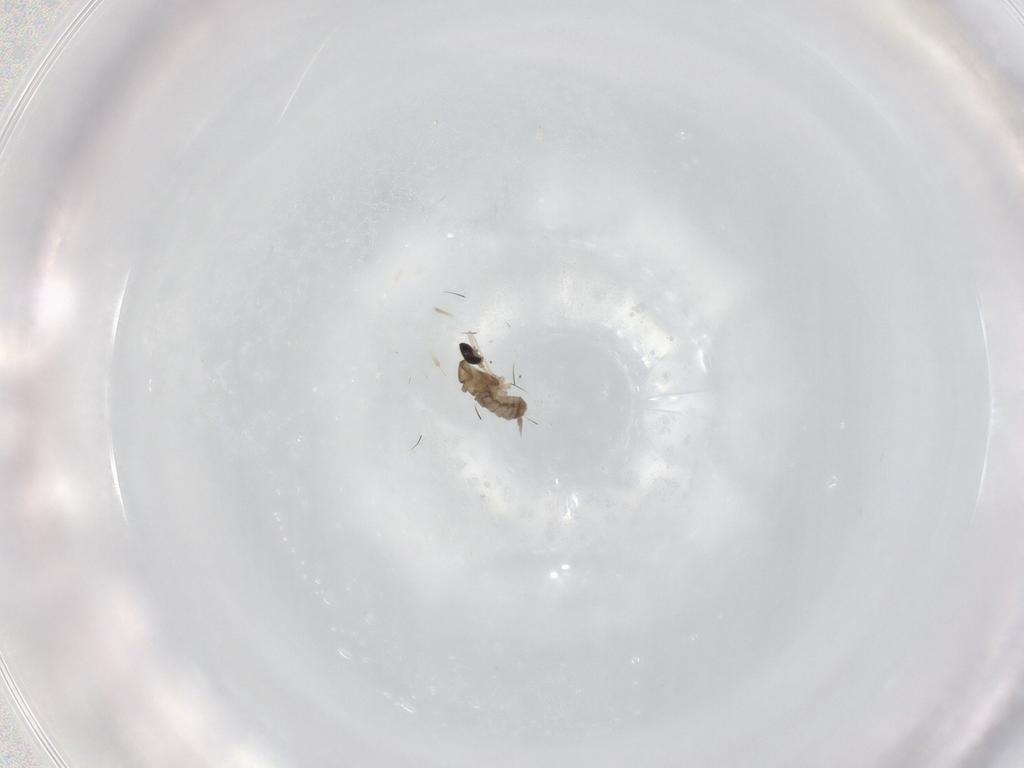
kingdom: Animalia
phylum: Arthropoda
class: Insecta
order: Diptera
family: Cecidomyiidae
